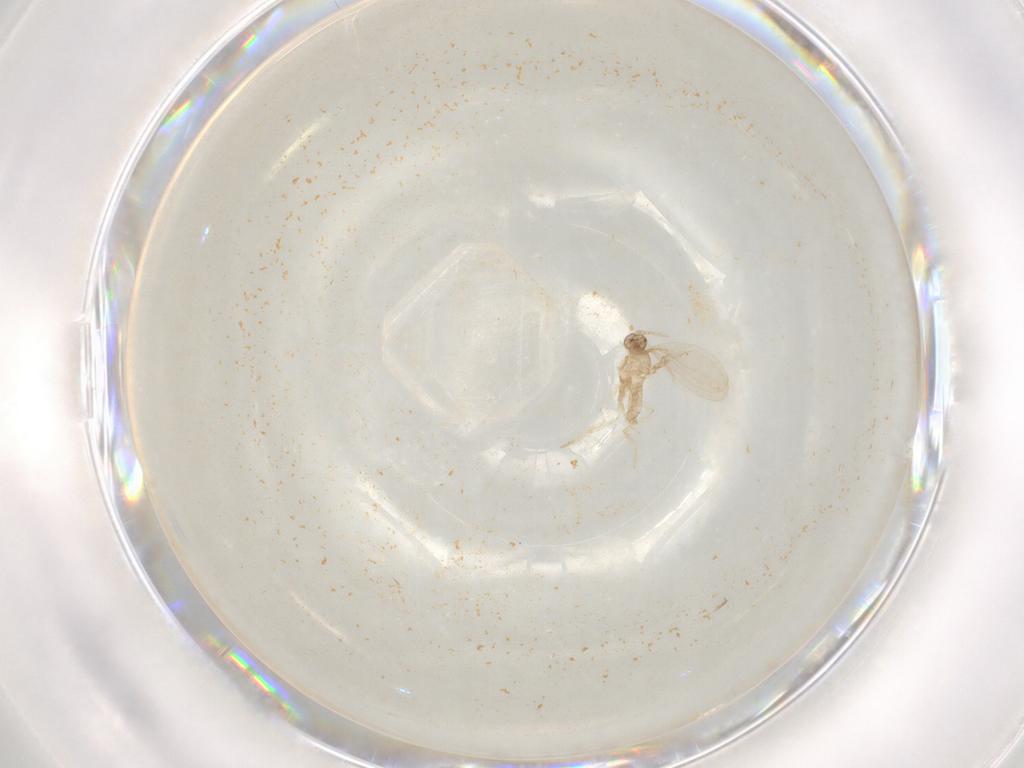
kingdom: Animalia
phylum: Arthropoda
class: Insecta
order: Diptera
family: Cecidomyiidae
